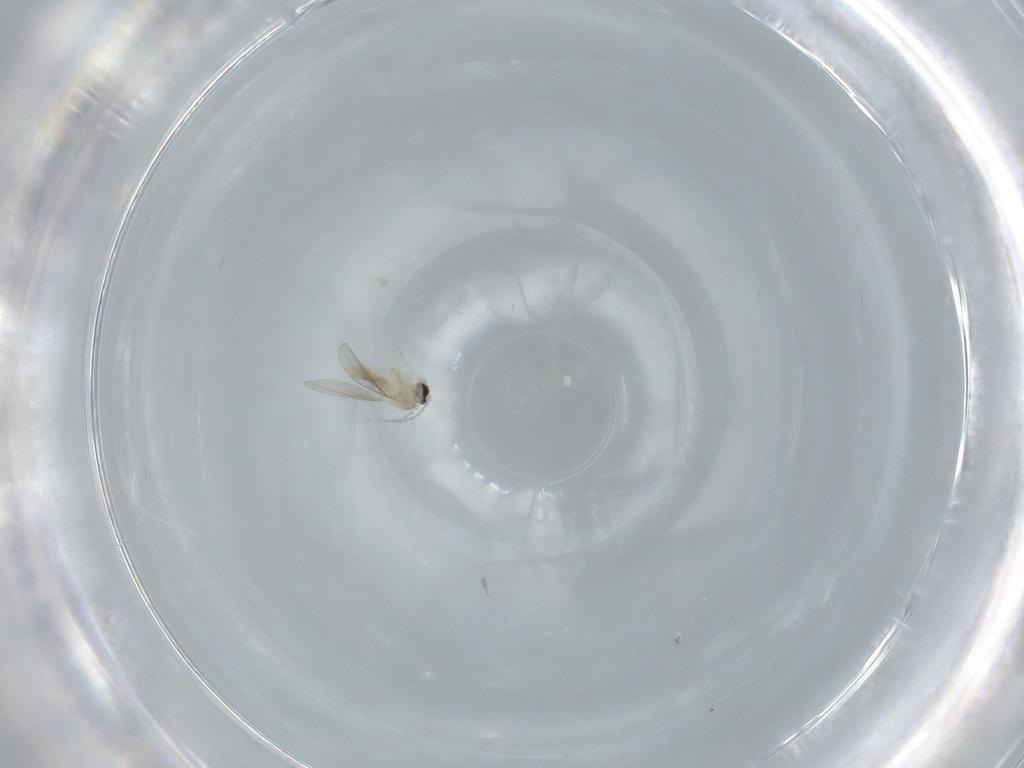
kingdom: Animalia
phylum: Arthropoda
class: Insecta
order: Diptera
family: Cecidomyiidae
